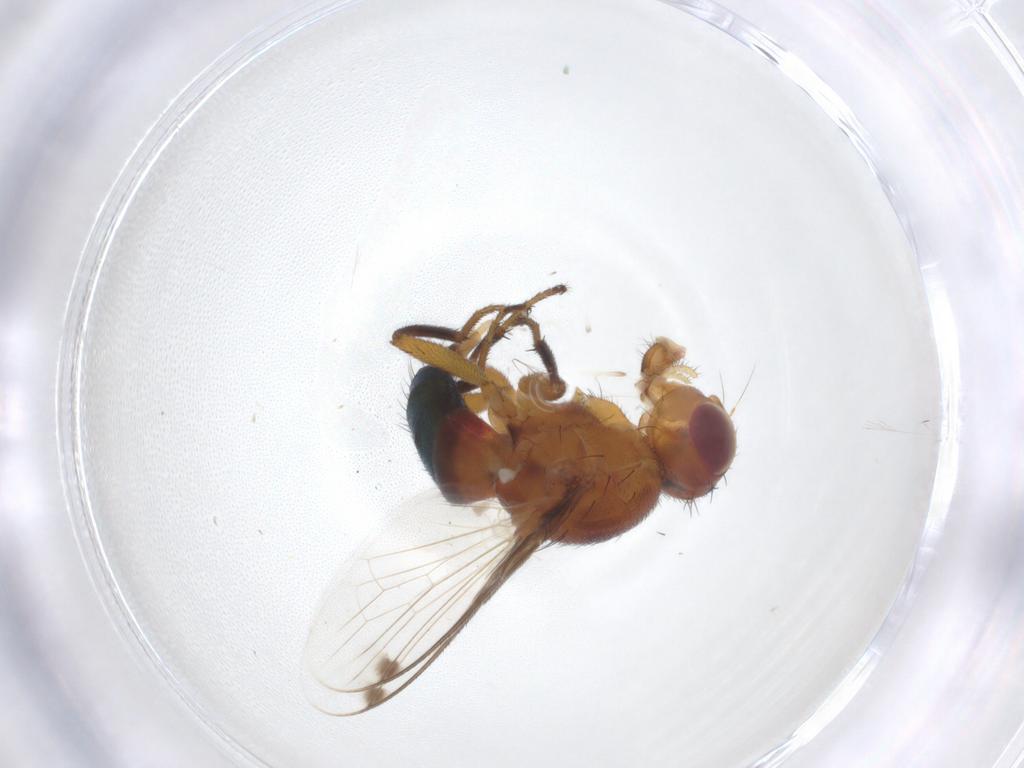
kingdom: Animalia
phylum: Arthropoda
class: Insecta
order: Diptera
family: Richardiidae
